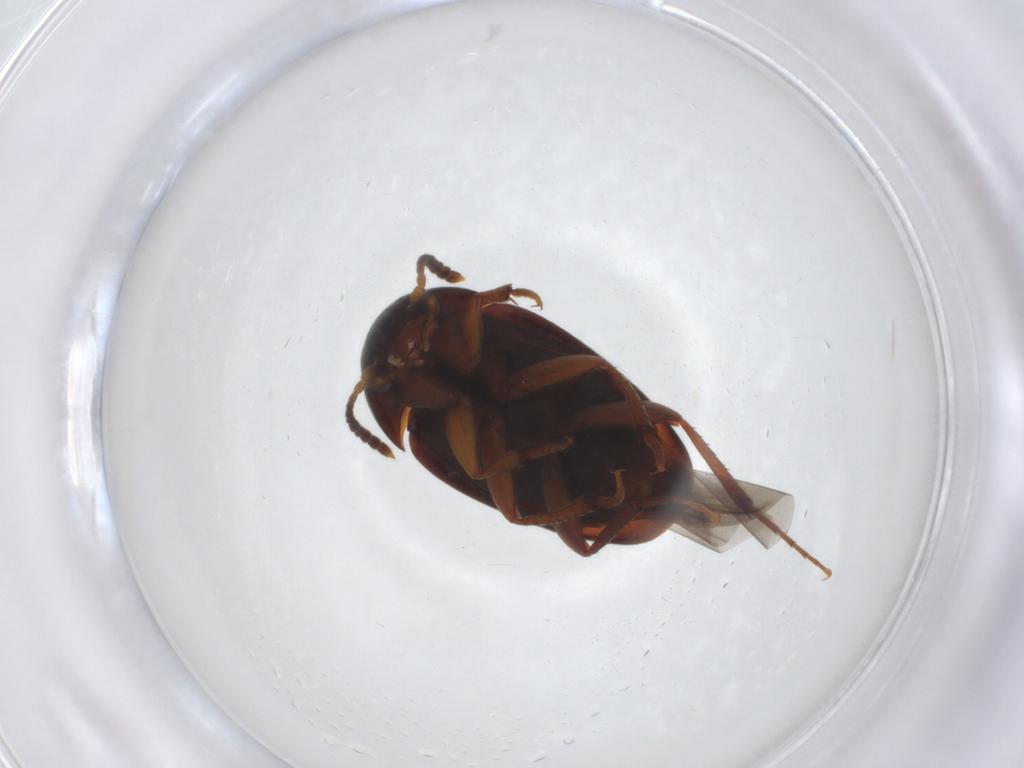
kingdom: Animalia
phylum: Arthropoda
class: Insecta
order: Coleoptera
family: Leiodidae
